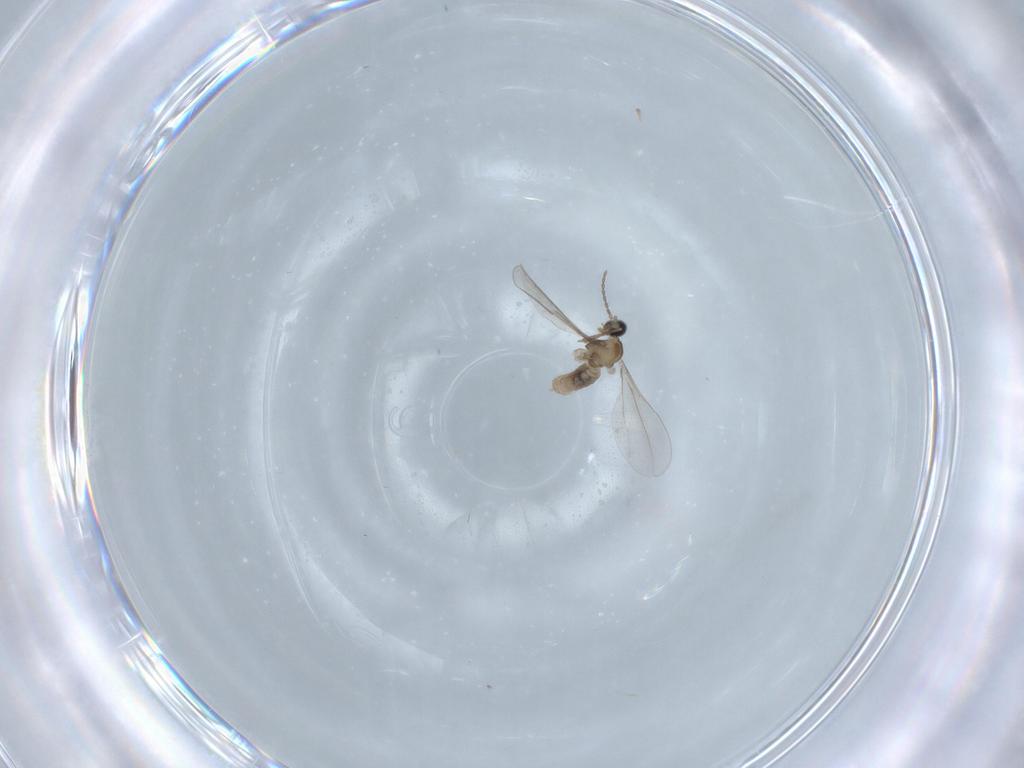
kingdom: Animalia
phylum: Arthropoda
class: Insecta
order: Diptera
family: Cecidomyiidae
